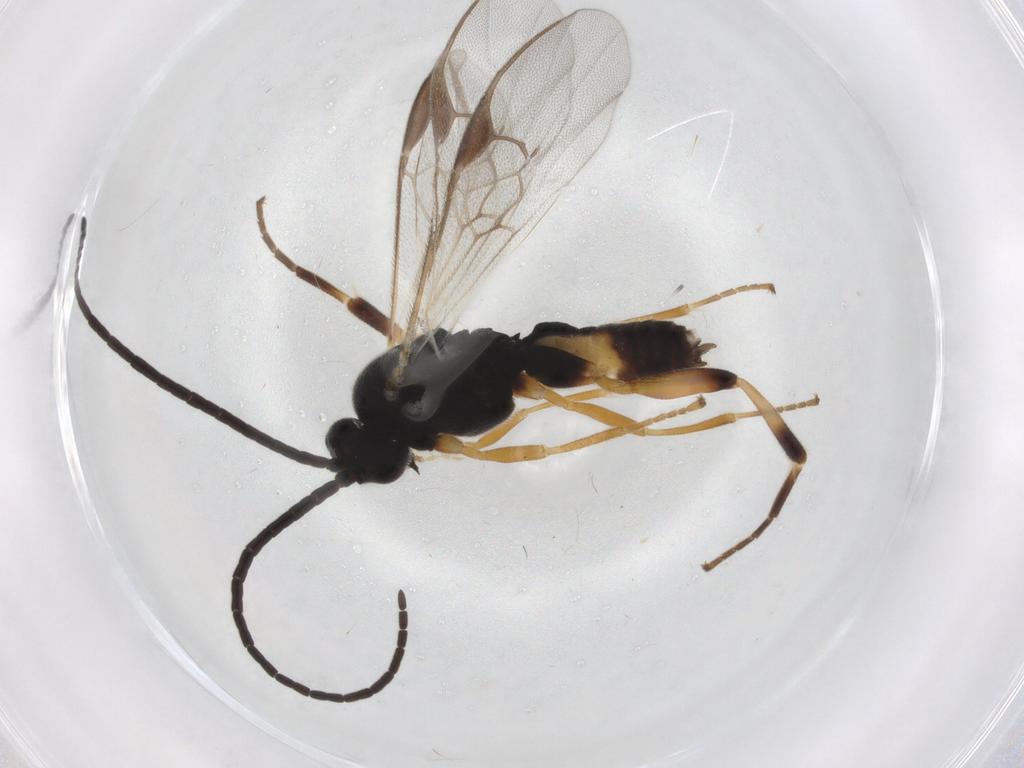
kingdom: Animalia
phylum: Arthropoda
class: Insecta
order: Hymenoptera
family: Braconidae
